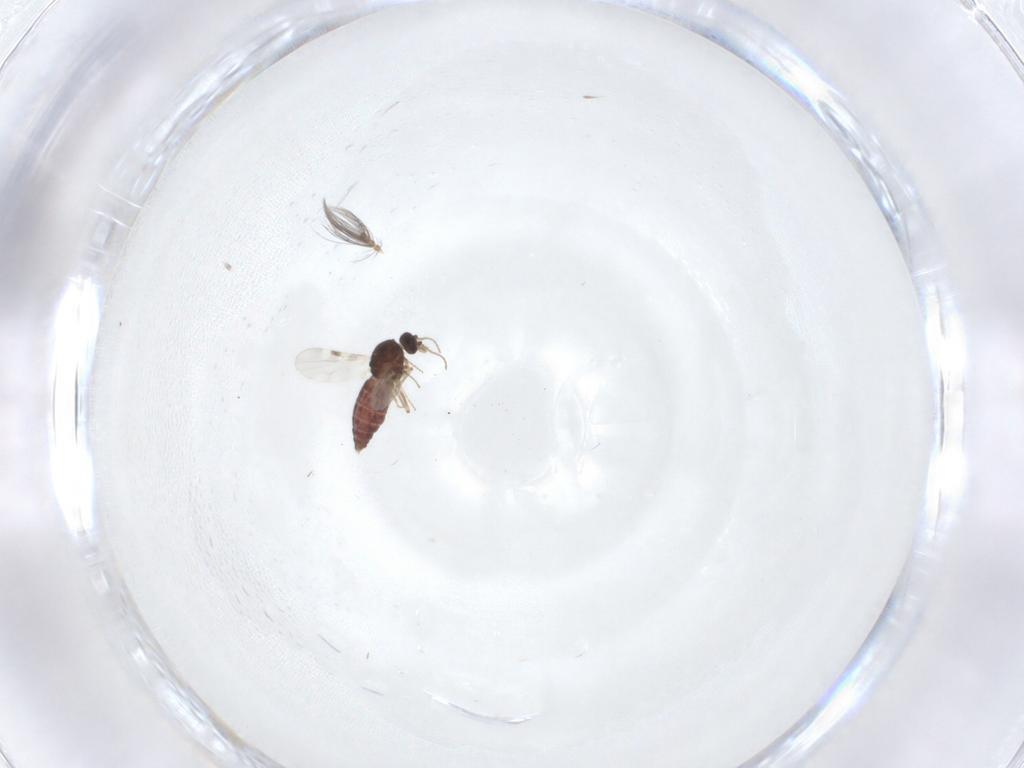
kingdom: Animalia
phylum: Arthropoda
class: Insecta
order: Diptera
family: Ceratopogonidae
